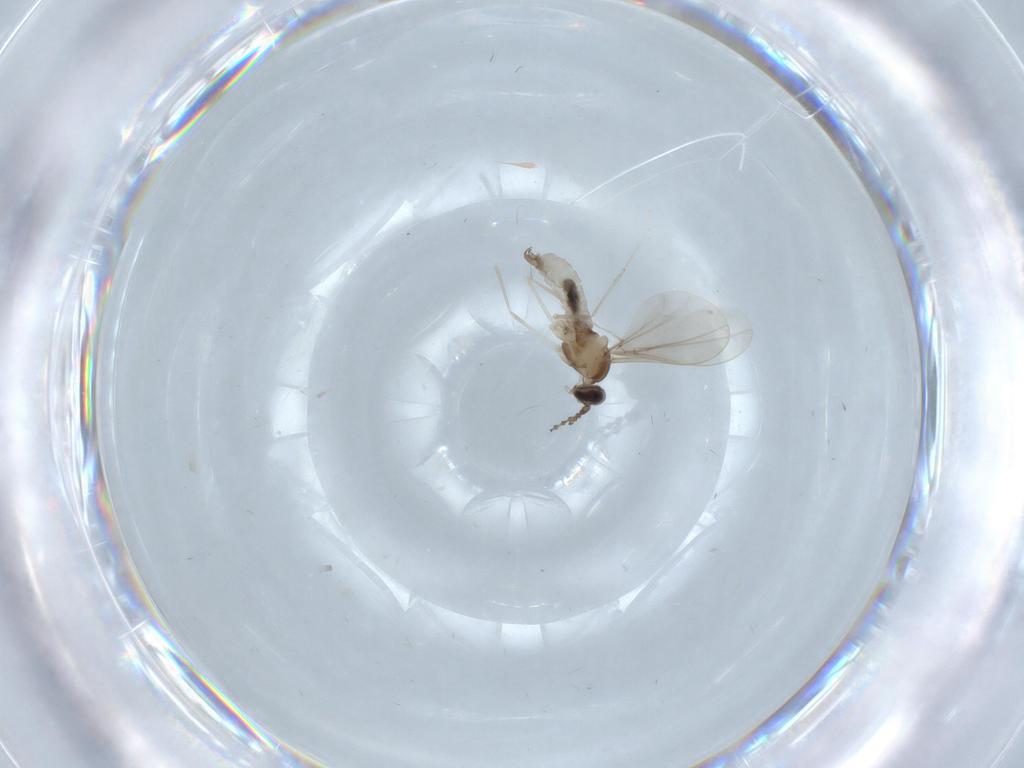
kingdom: Animalia
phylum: Arthropoda
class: Insecta
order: Diptera
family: Cecidomyiidae
